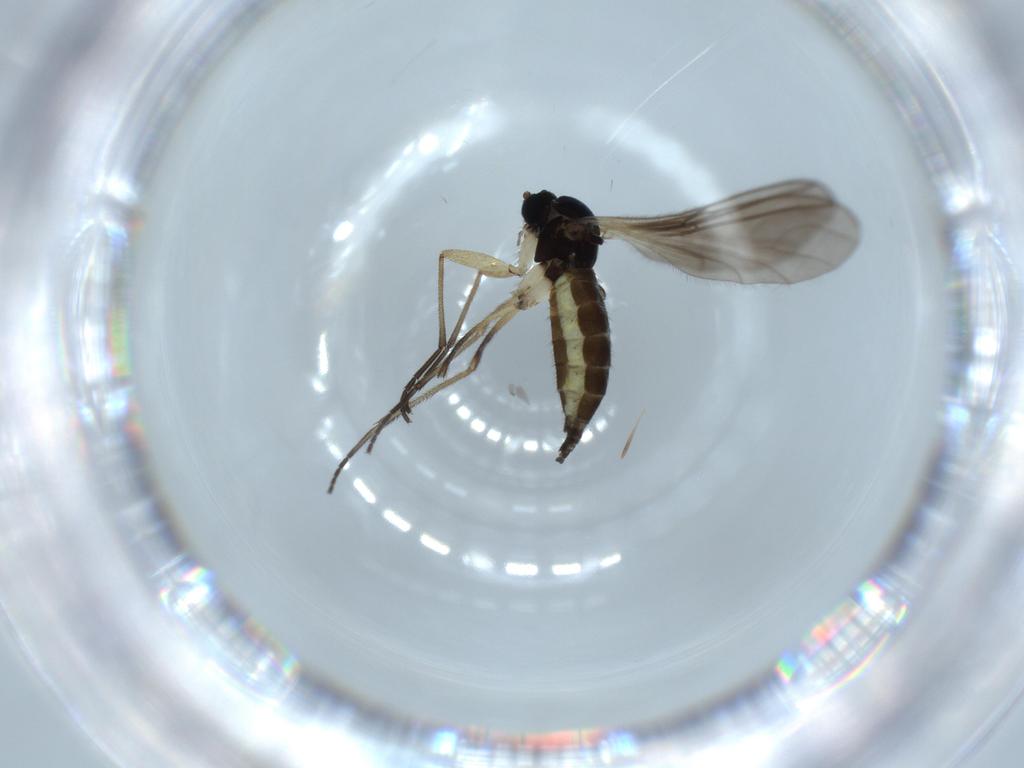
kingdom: Animalia
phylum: Arthropoda
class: Insecta
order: Diptera
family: Sciaridae
